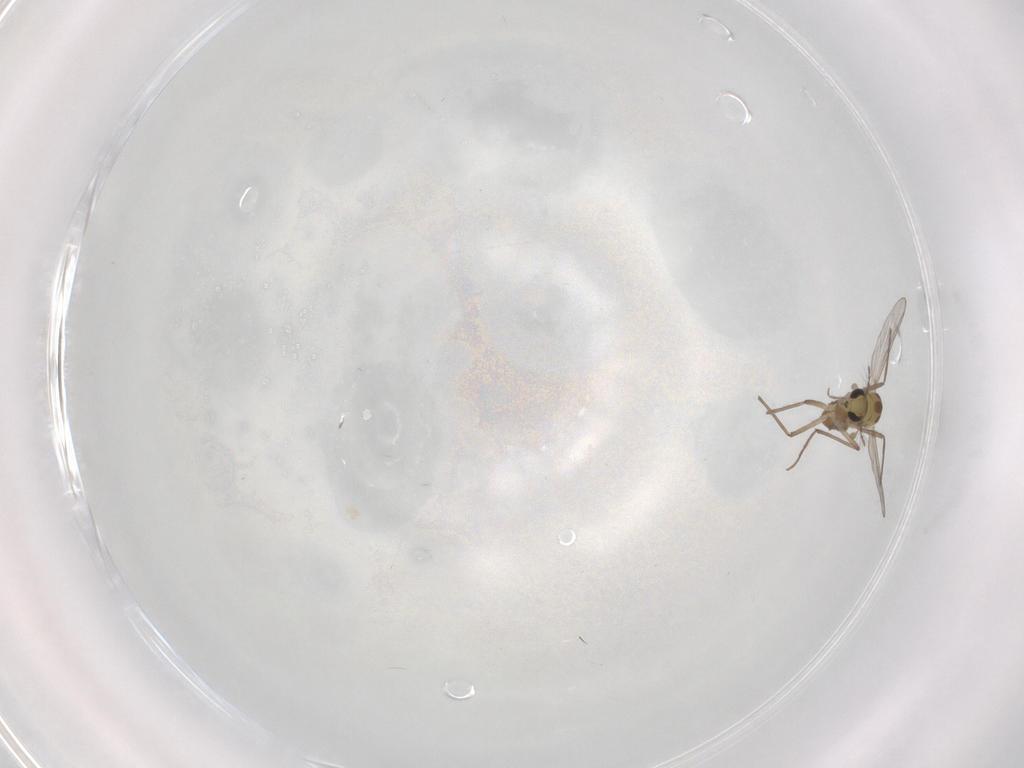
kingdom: Animalia
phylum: Arthropoda
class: Insecta
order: Diptera
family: Chironomidae
